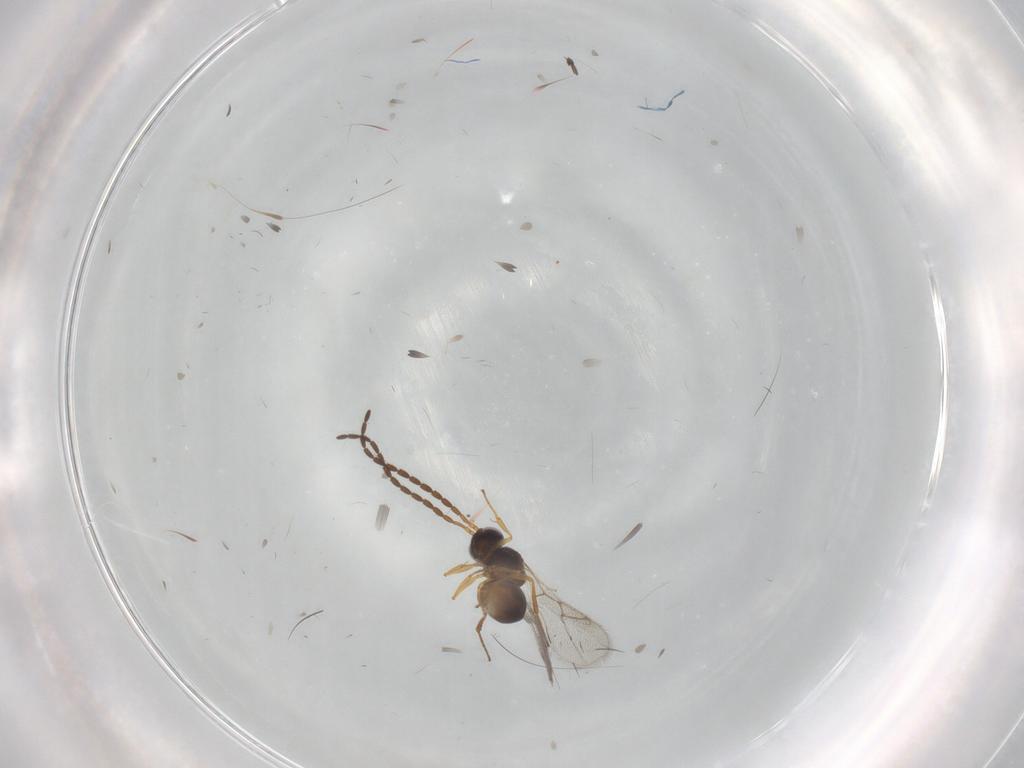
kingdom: Animalia
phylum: Arthropoda
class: Insecta
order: Hymenoptera
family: Figitidae
